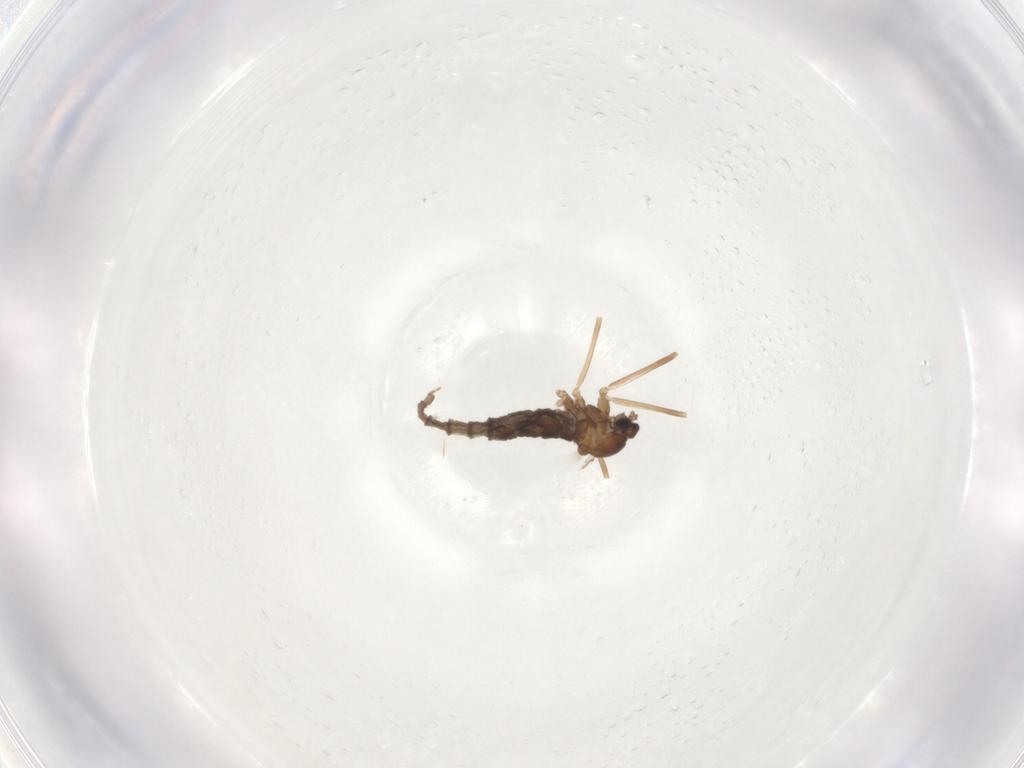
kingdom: Animalia
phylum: Arthropoda
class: Insecta
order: Diptera
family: Cecidomyiidae
